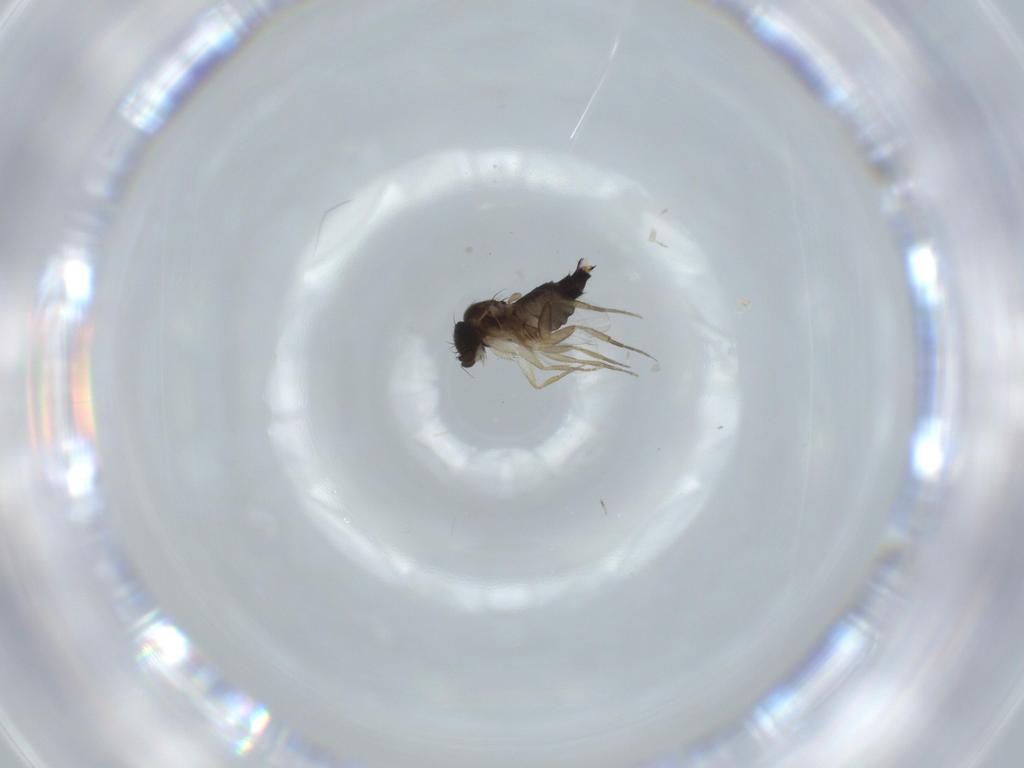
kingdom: Animalia
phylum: Arthropoda
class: Insecta
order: Diptera
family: Phoridae
